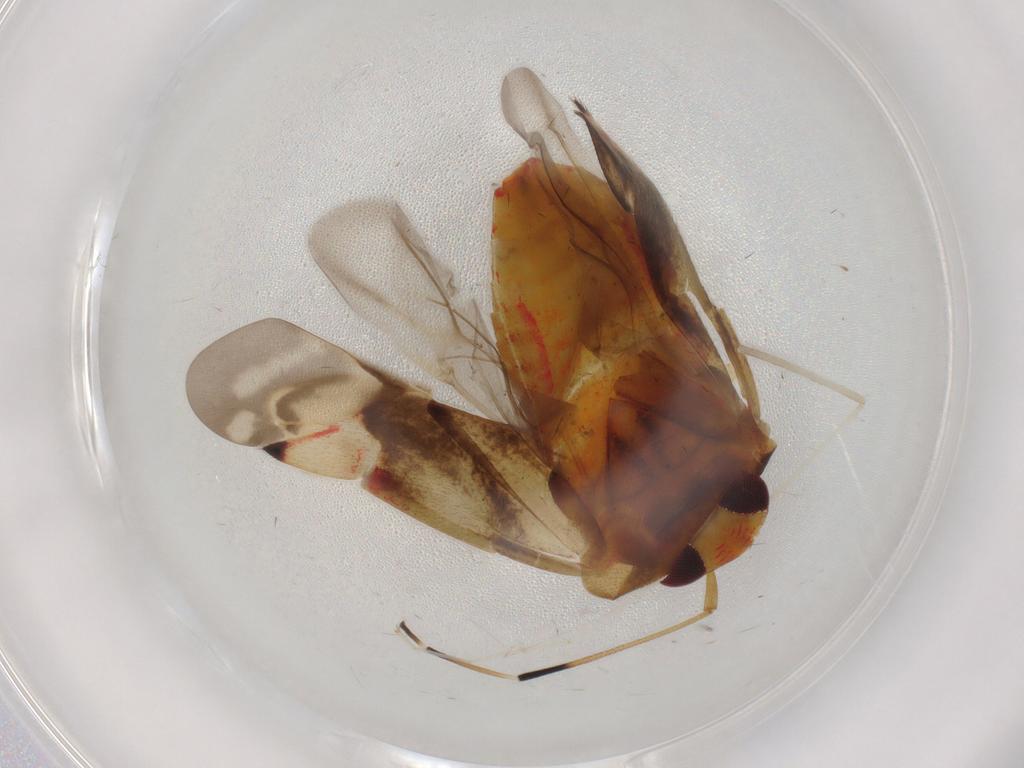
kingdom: Animalia
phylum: Arthropoda
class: Insecta
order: Hemiptera
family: Miridae
